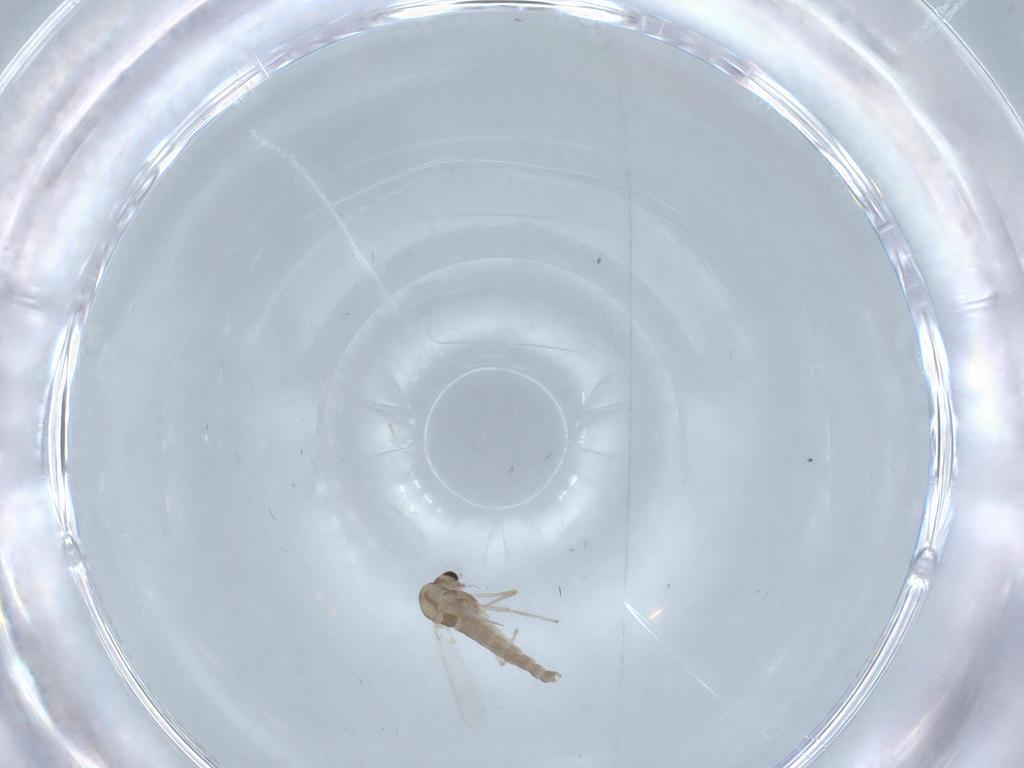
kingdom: Animalia
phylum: Arthropoda
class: Insecta
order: Diptera
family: Chironomidae
